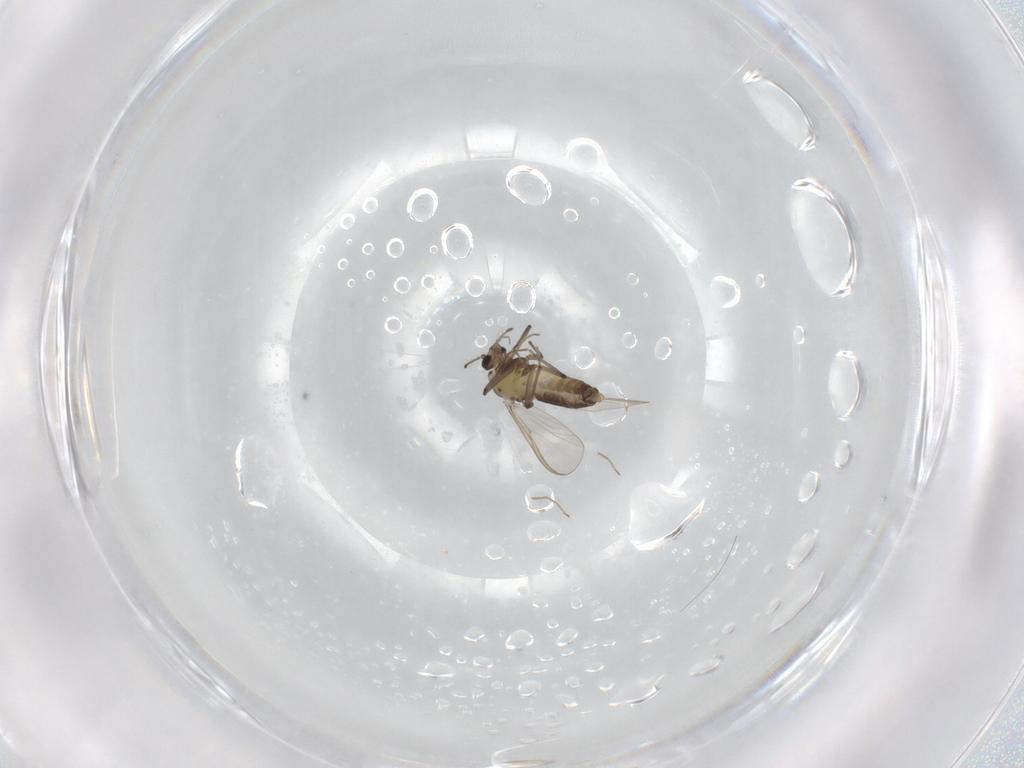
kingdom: Animalia
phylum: Arthropoda
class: Insecta
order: Diptera
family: Chironomidae
